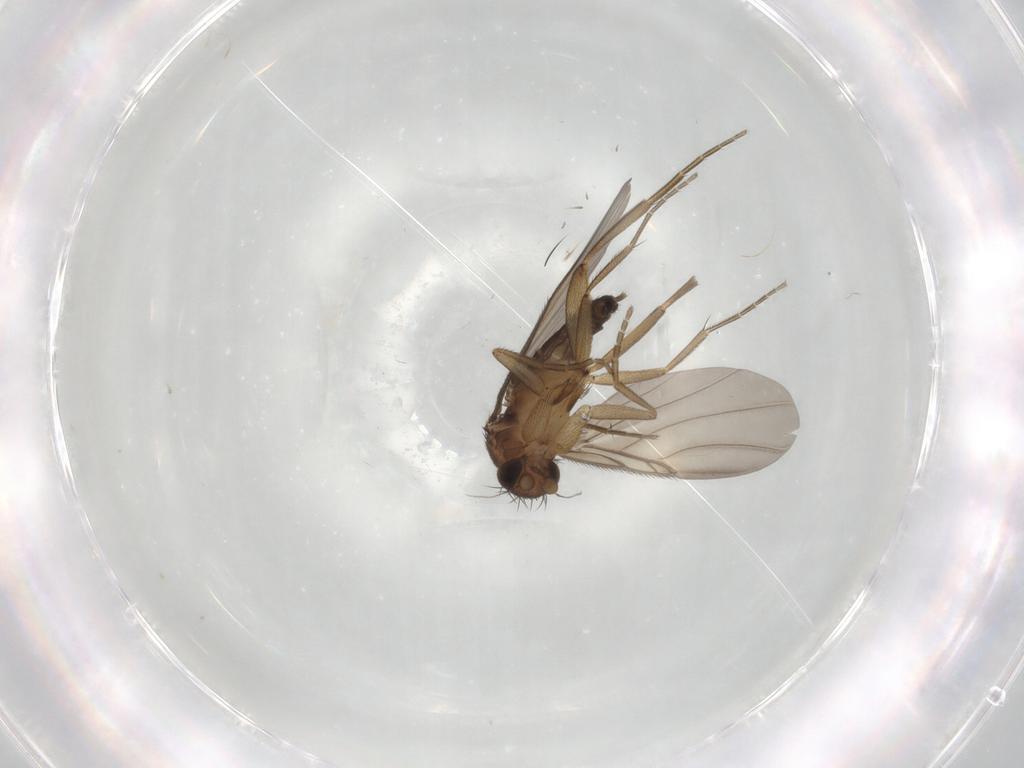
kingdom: Animalia
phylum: Arthropoda
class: Insecta
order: Diptera
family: Phoridae
